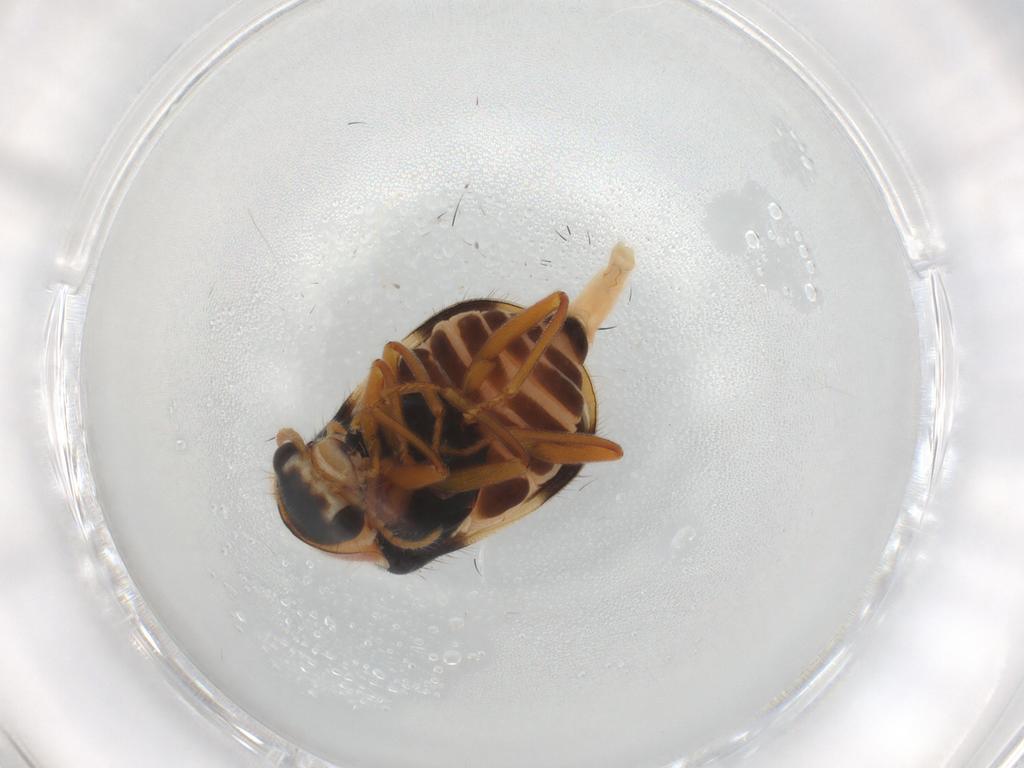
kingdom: Animalia
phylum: Arthropoda
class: Insecta
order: Coleoptera
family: Melyridae
